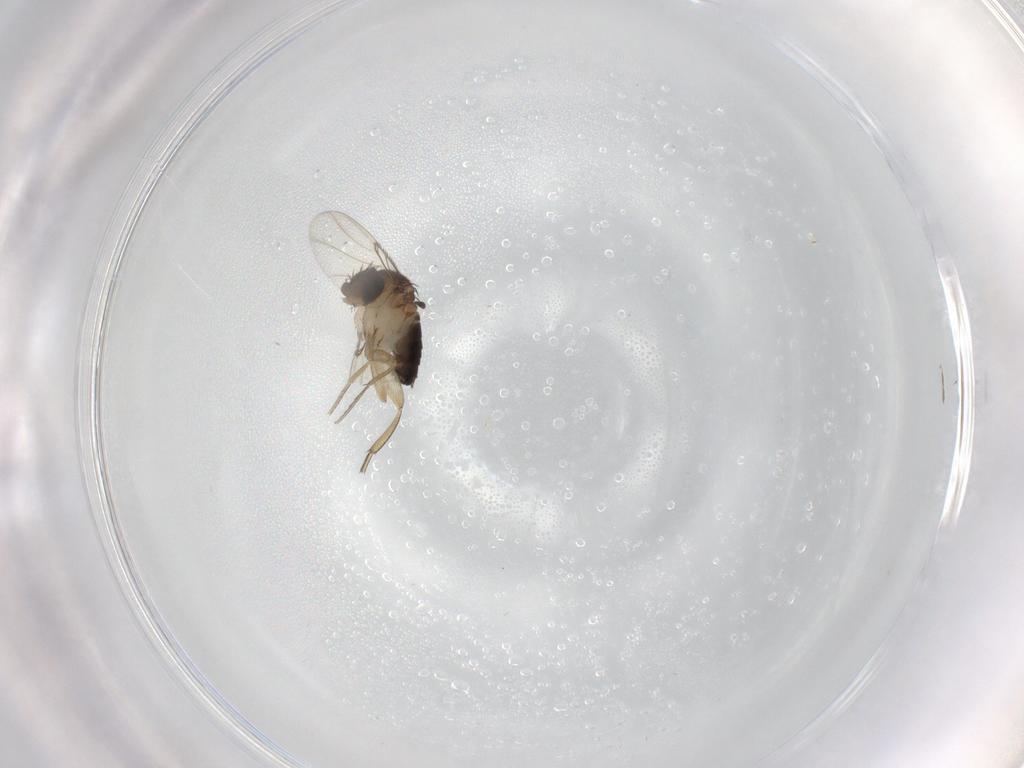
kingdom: Animalia
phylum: Arthropoda
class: Insecta
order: Diptera
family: Phoridae
